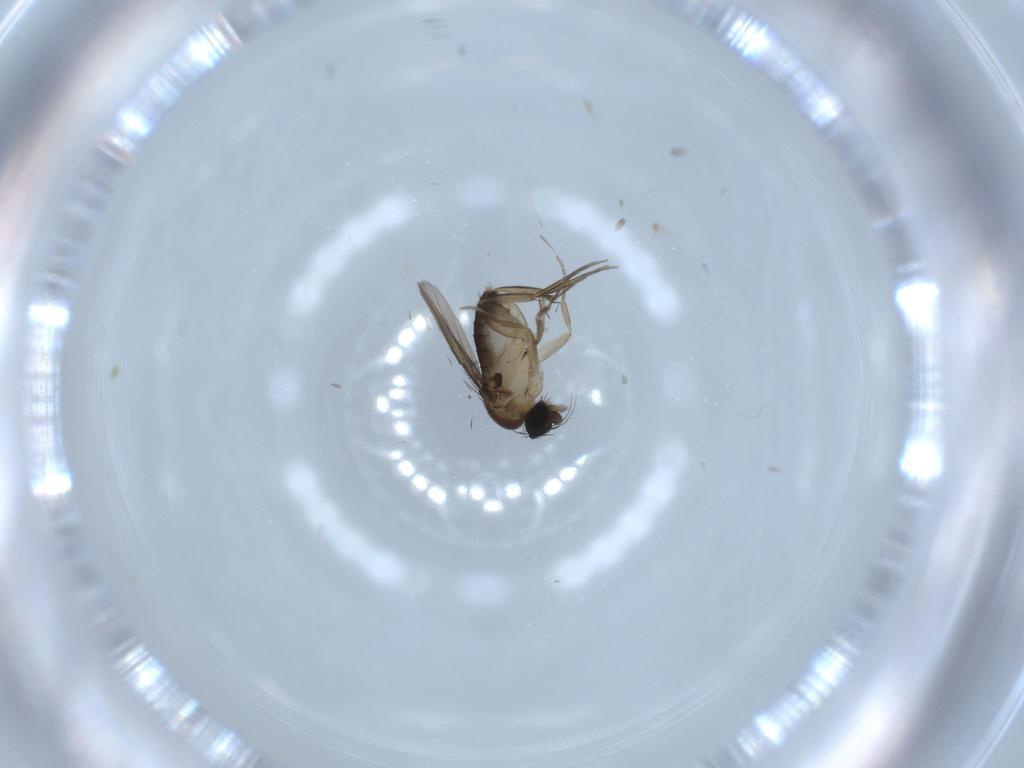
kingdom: Animalia
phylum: Arthropoda
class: Insecta
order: Diptera
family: Phoridae
